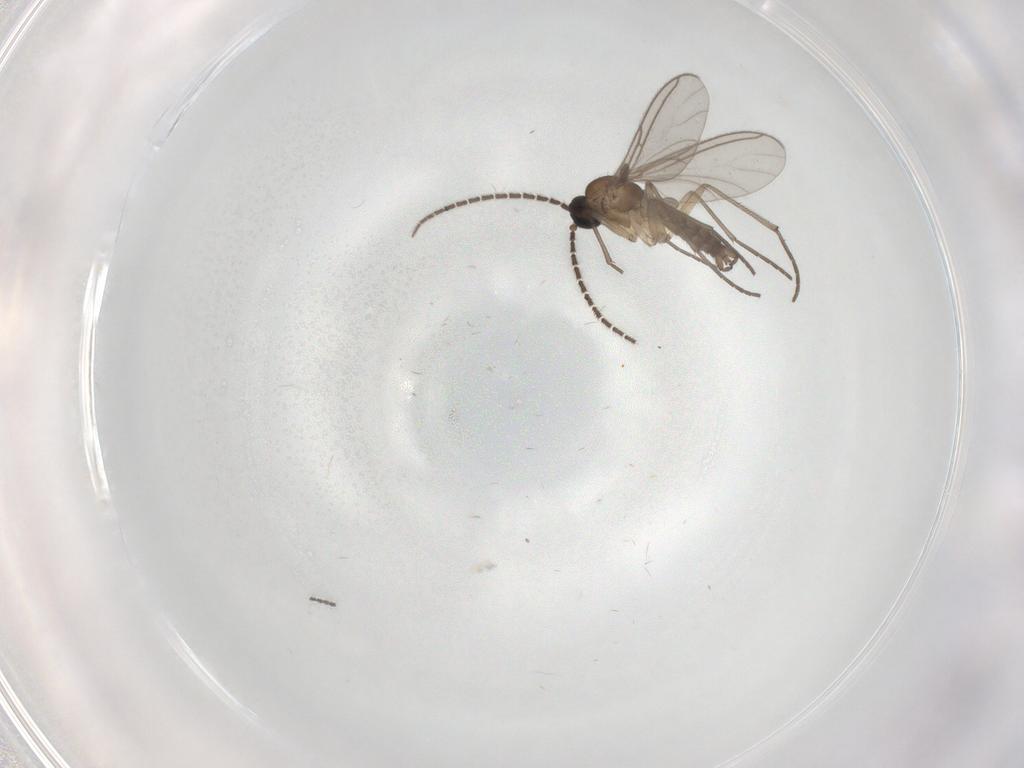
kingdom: Animalia
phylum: Arthropoda
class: Insecta
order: Diptera
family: Sciaridae
